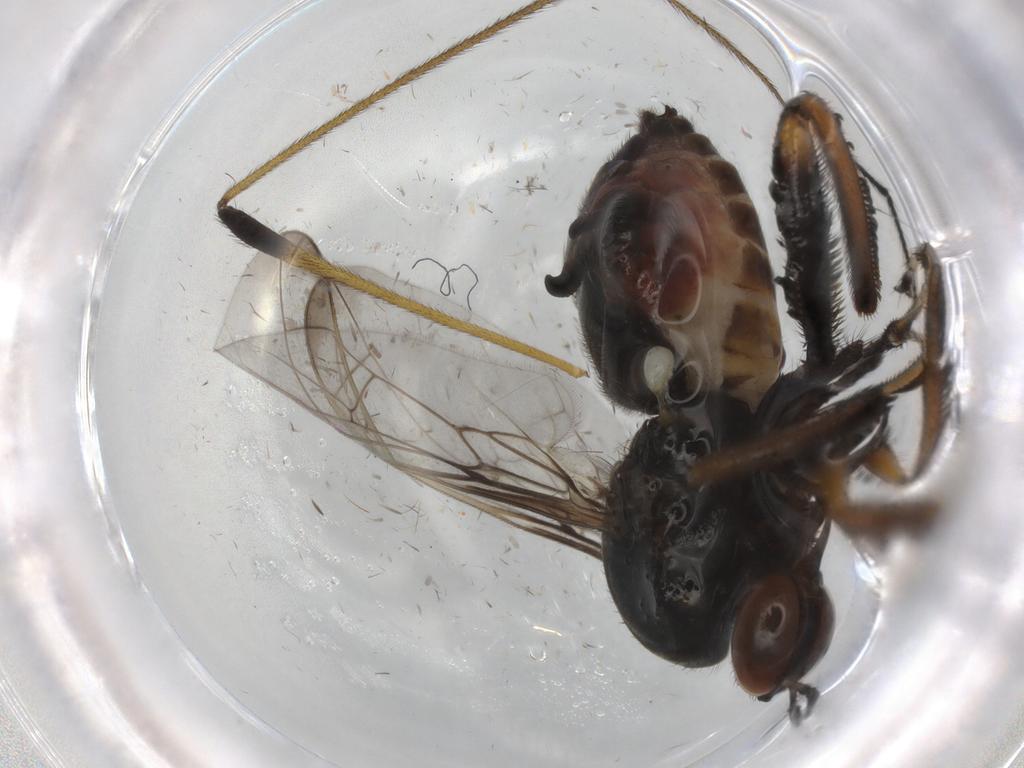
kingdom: Animalia
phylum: Arthropoda
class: Insecta
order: Diptera
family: Empididae
